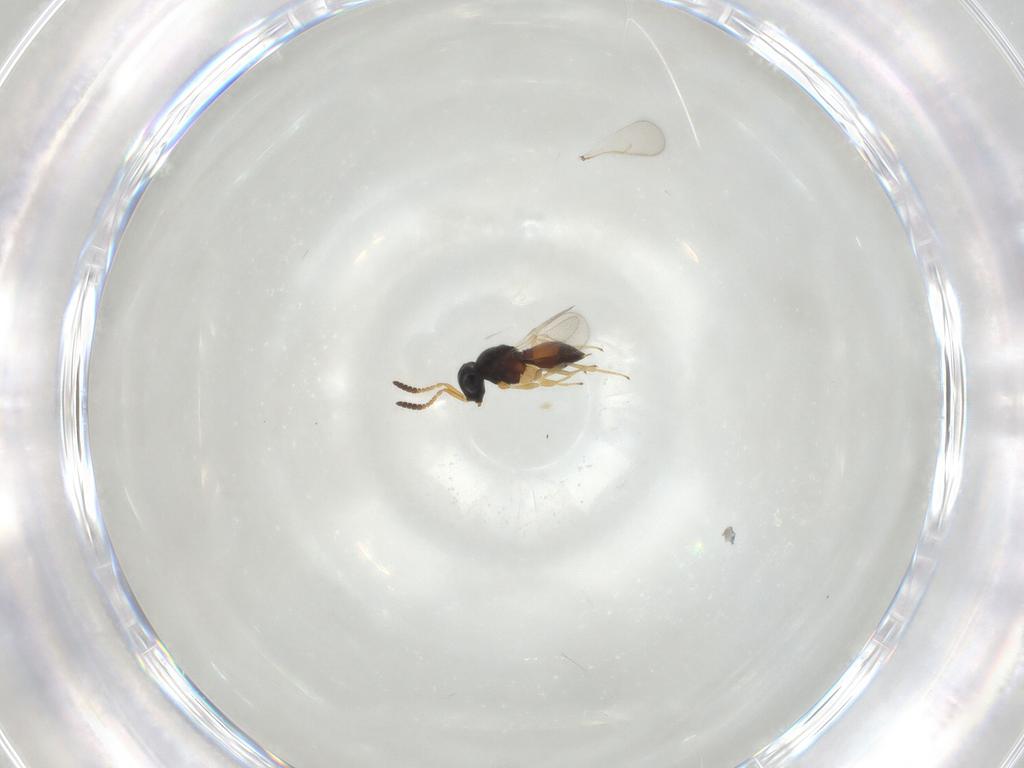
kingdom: Animalia
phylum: Arthropoda
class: Insecta
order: Hymenoptera
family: Scelionidae
